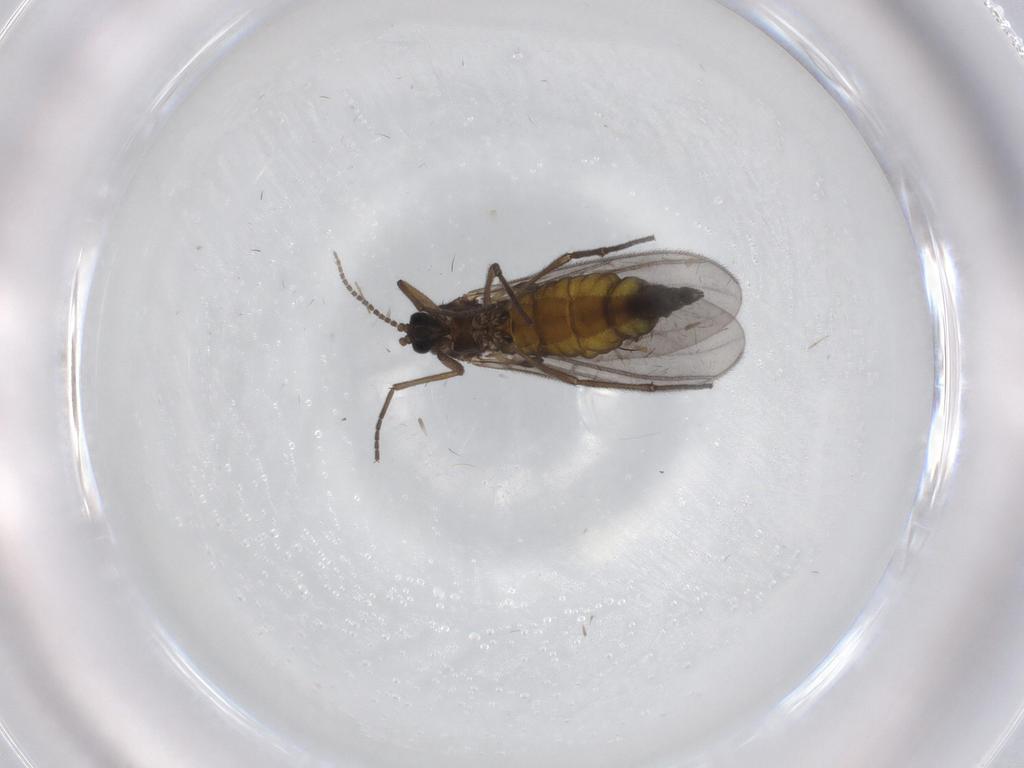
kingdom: Animalia
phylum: Arthropoda
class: Insecta
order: Diptera
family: Sciaridae
